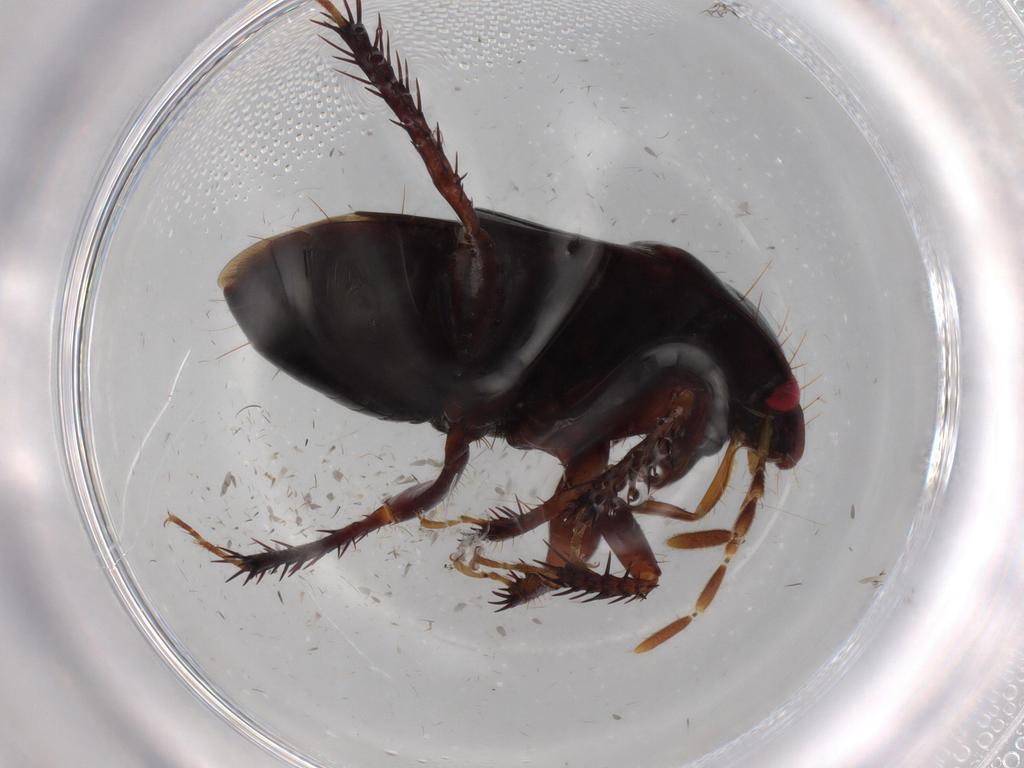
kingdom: Animalia
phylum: Arthropoda
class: Insecta
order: Hemiptera
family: Cydnidae
